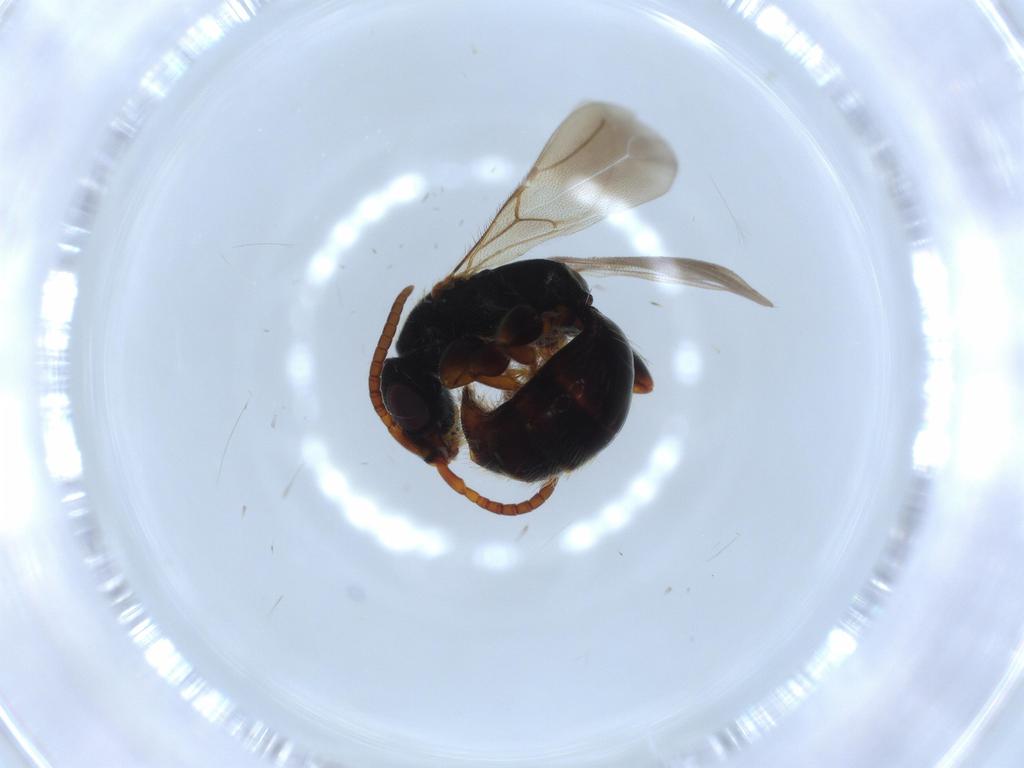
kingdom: Animalia
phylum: Arthropoda
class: Insecta
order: Hymenoptera
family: Bethylidae
